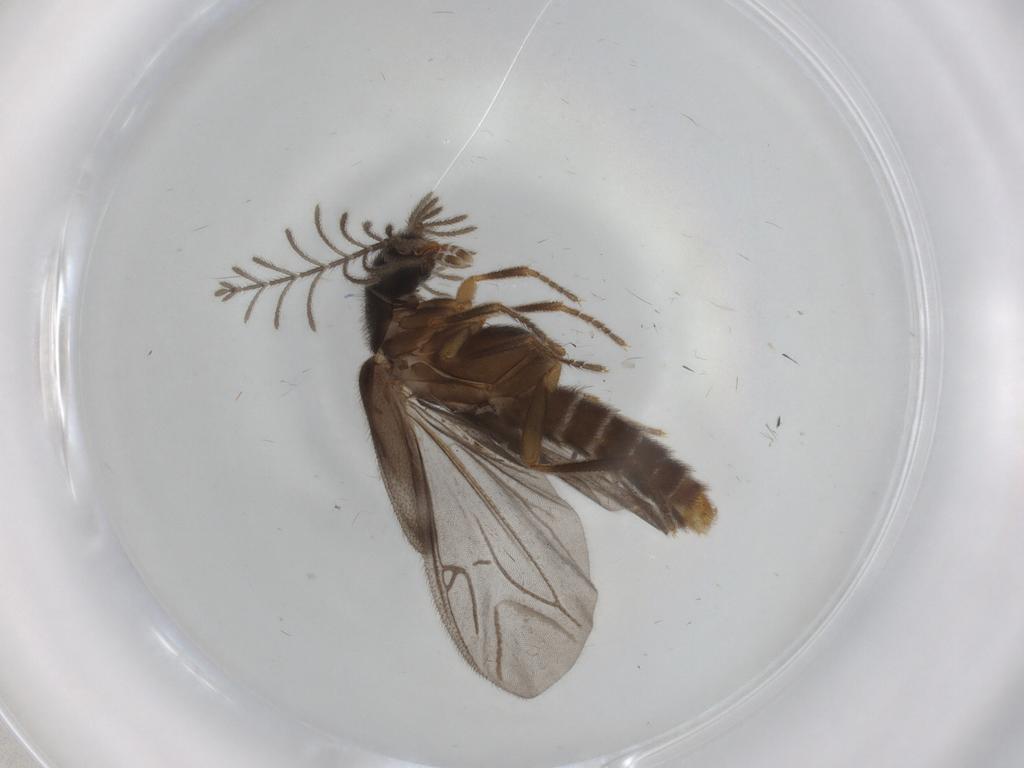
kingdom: Animalia
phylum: Arthropoda
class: Insecta
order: Coleoptera
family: Endomychidae
